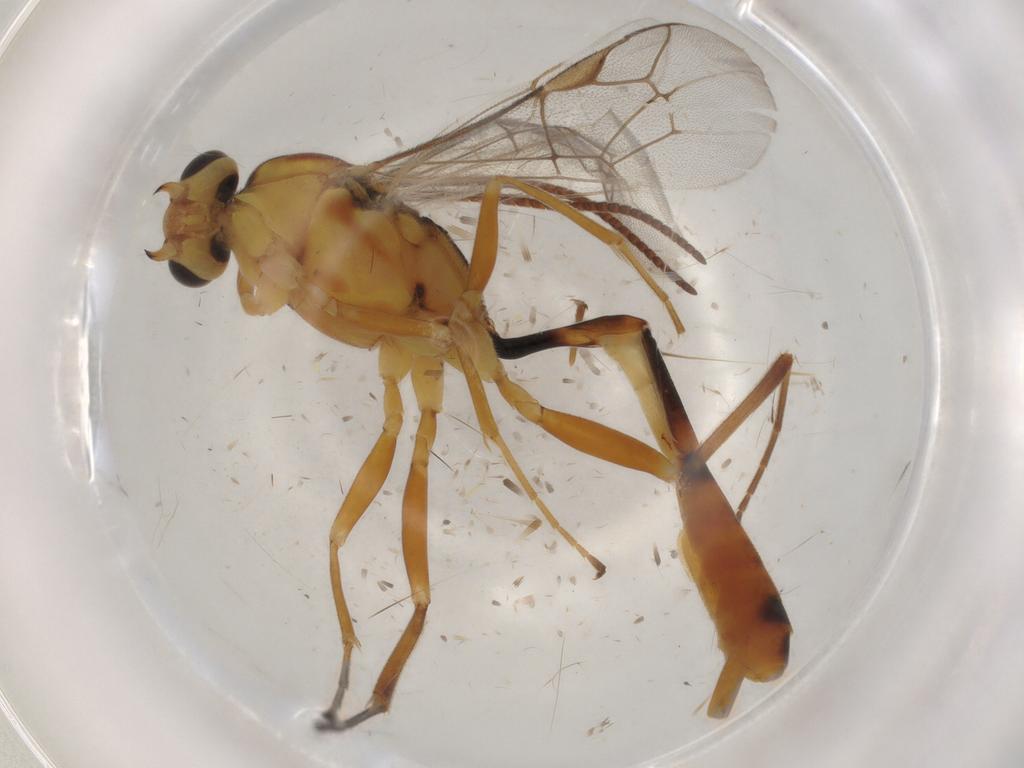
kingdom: Animalia
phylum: Arthropoda
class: Insecta
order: Hymenoptera
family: Ichneumonidae
